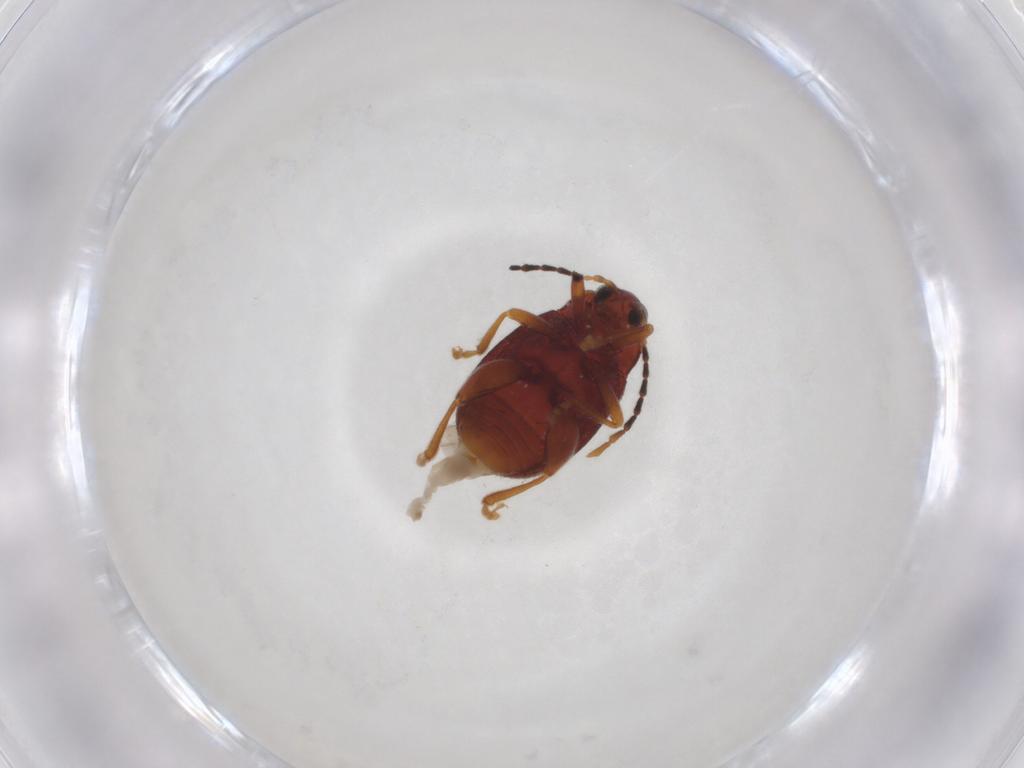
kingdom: Animalia
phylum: Arthropoda
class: Insecta
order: Coleoptera
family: Chrysomelidae
